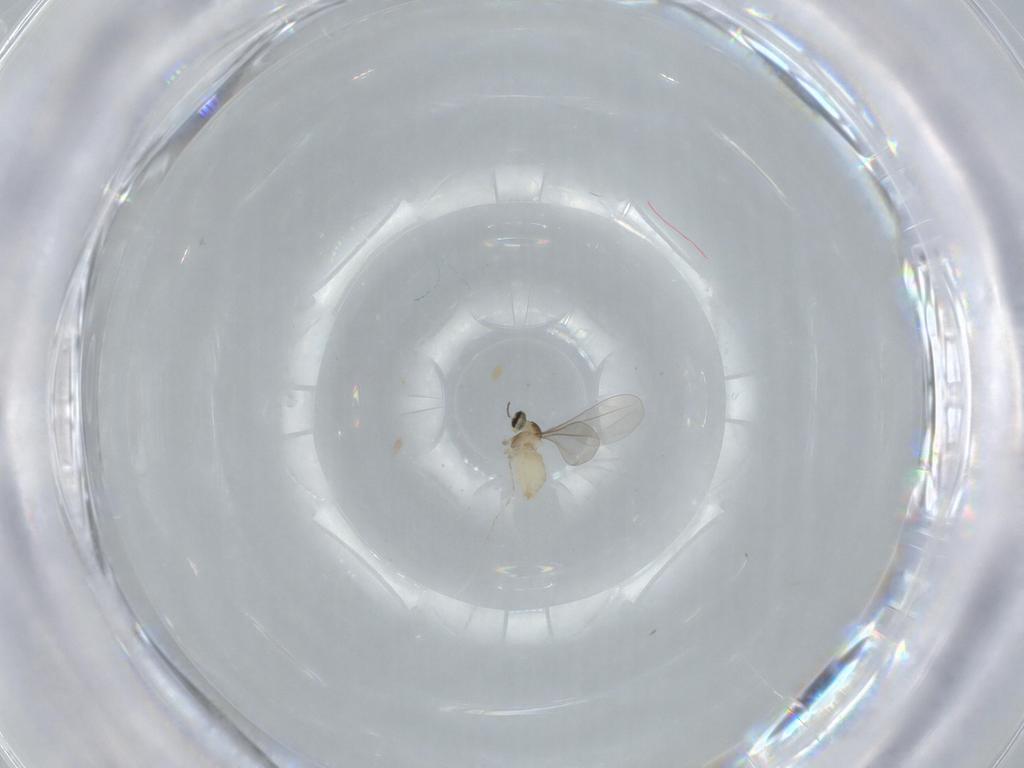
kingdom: Animalia
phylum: Arthropoda
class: Insecta
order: Diptera
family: Cecidomyiidae
